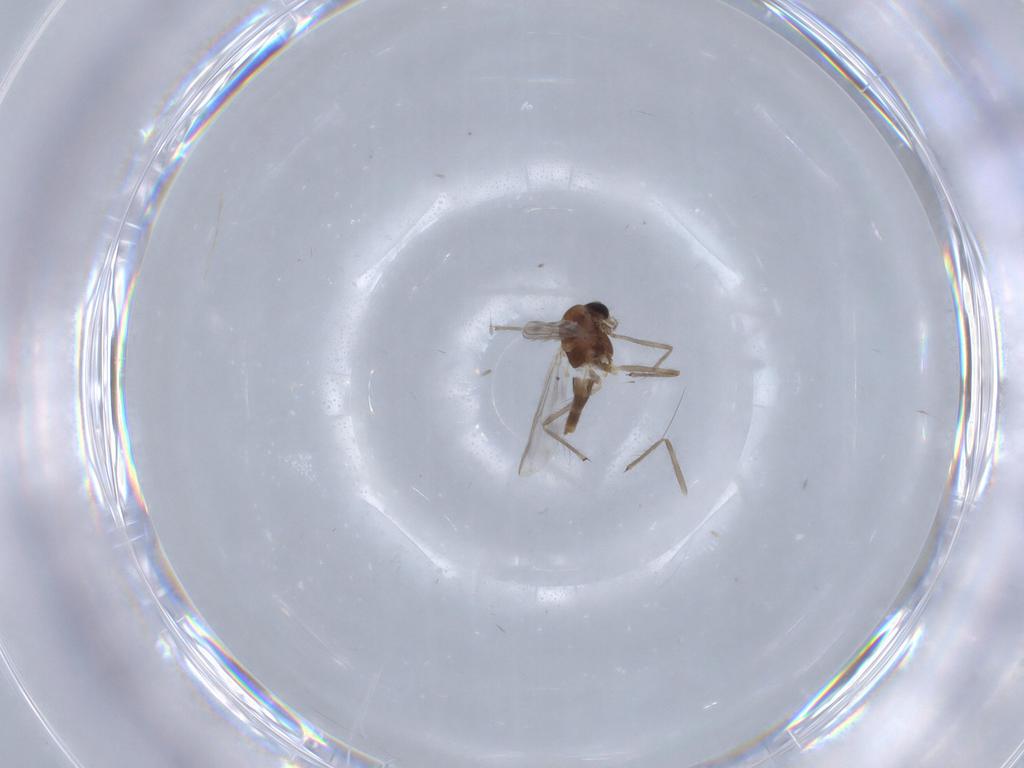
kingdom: Animalia
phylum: Arthropoda
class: Insecta
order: Diptera
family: Chironomidae
